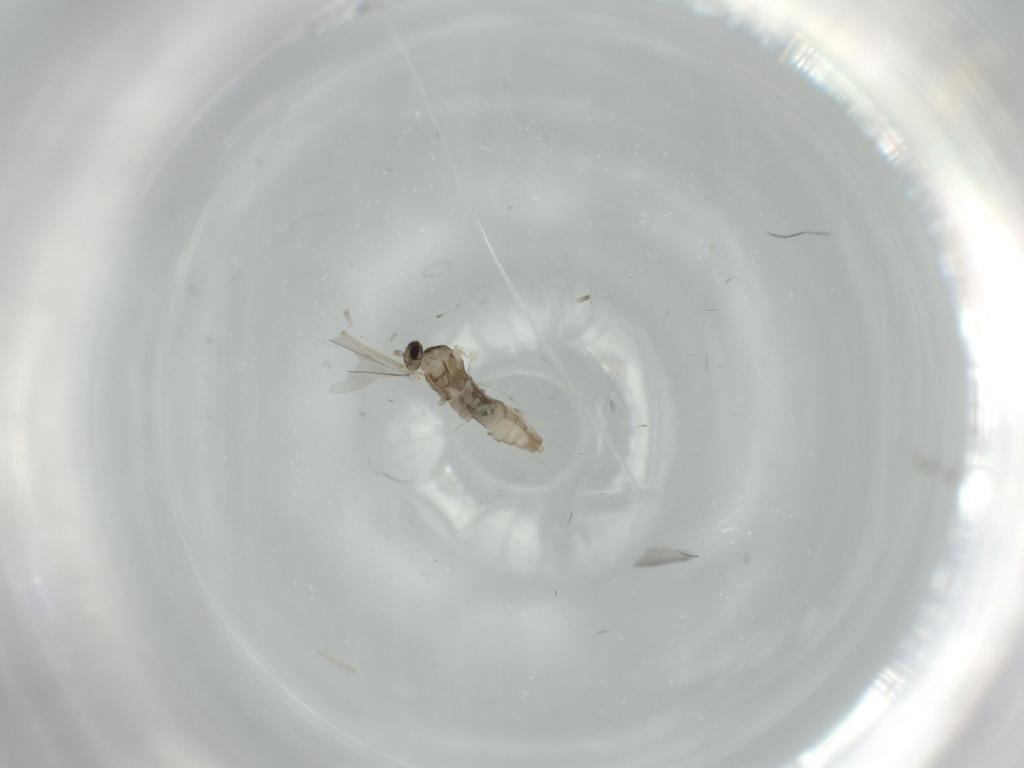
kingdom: Animalia
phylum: Arthropoda
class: Insecta
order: Diptera
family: Cecidomyiidae
